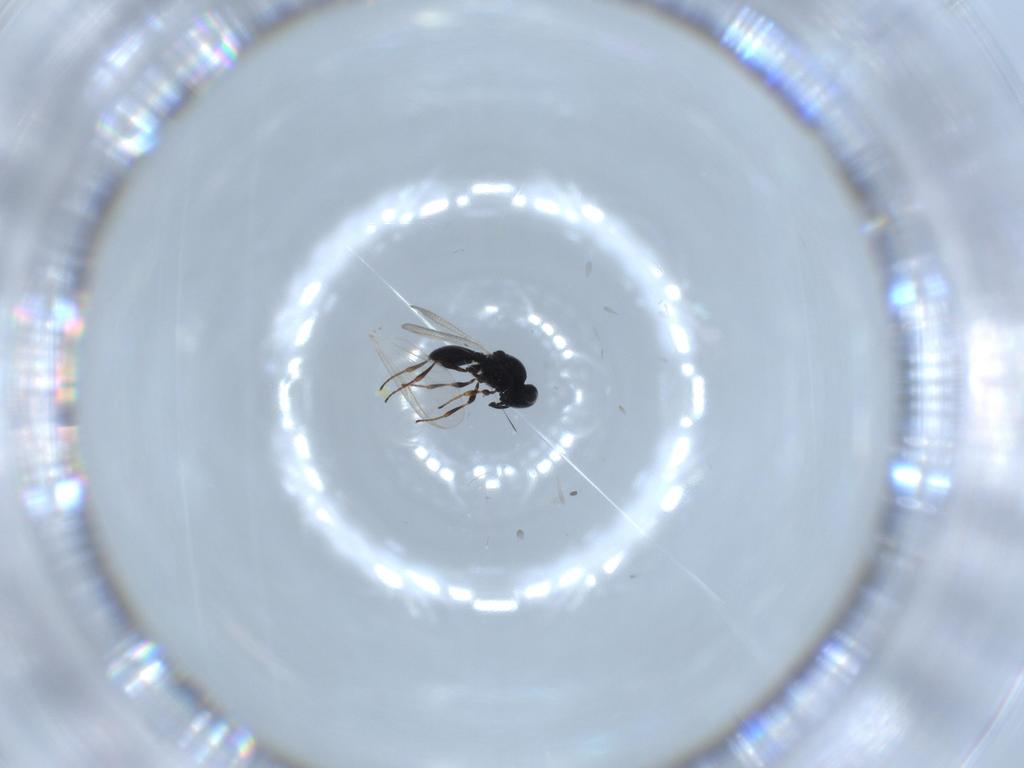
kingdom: Animalia
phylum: Arthropoda
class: Insecta
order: Hymenoptera
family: Platygastridae
